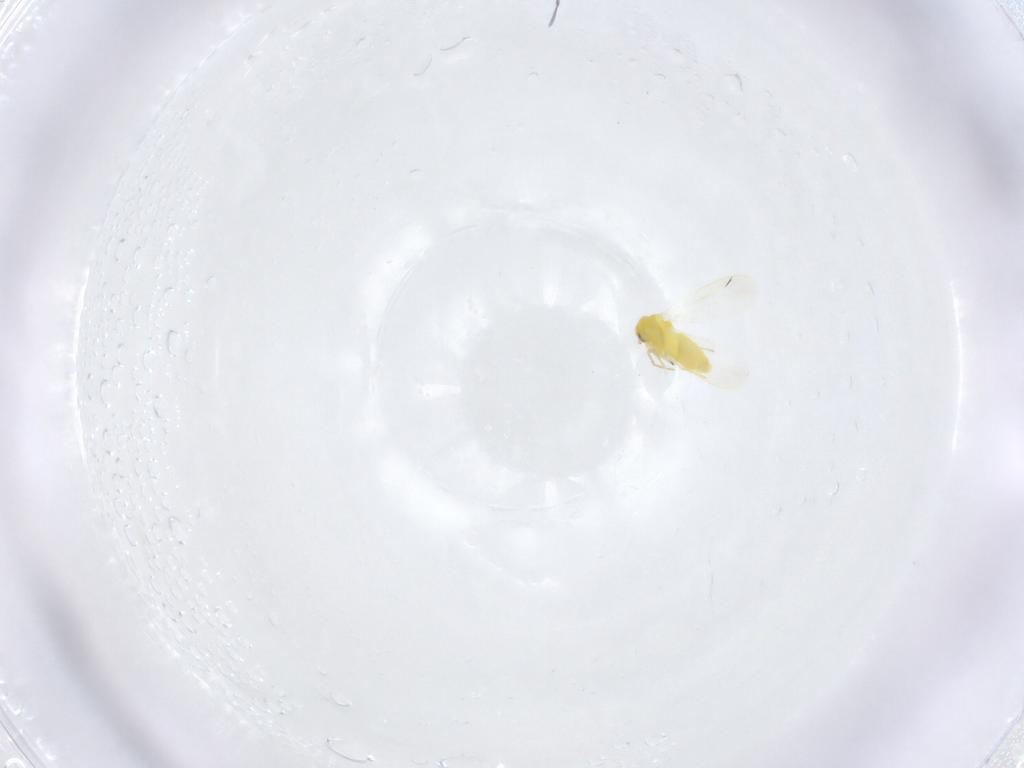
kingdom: Animalia
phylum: Arthropoda
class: Insecta
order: Hemiptera
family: Aleyrodidae
